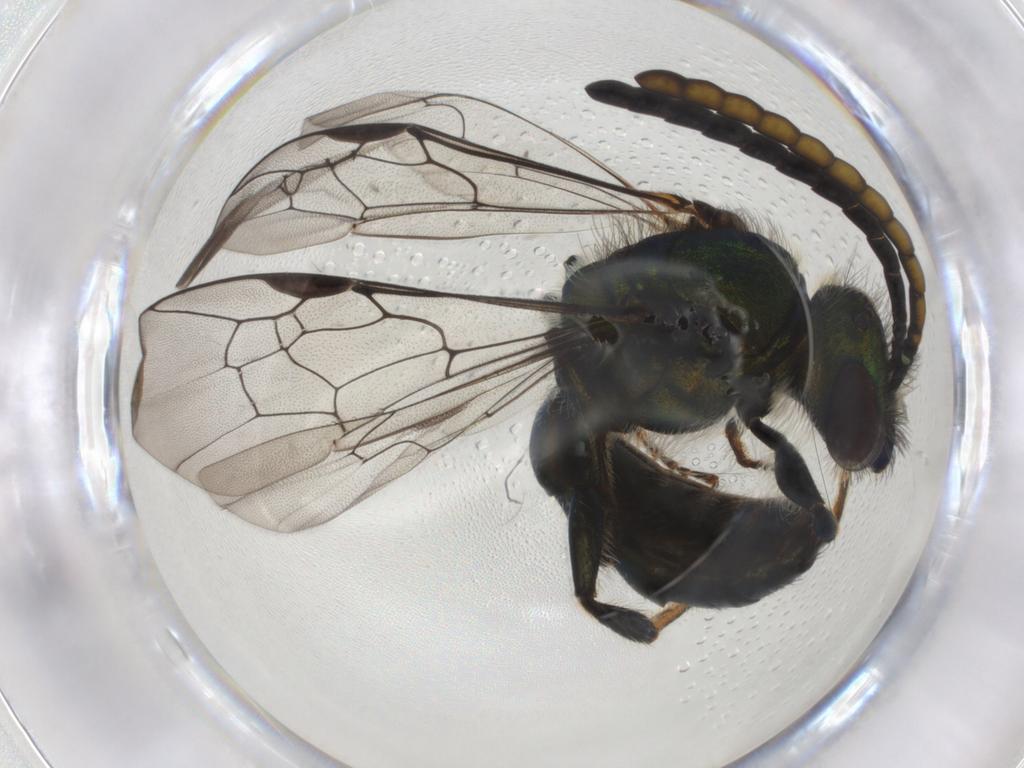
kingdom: Animalia
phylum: Arthropoda
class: Insecta
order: Hymenoptera
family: Halictidae
